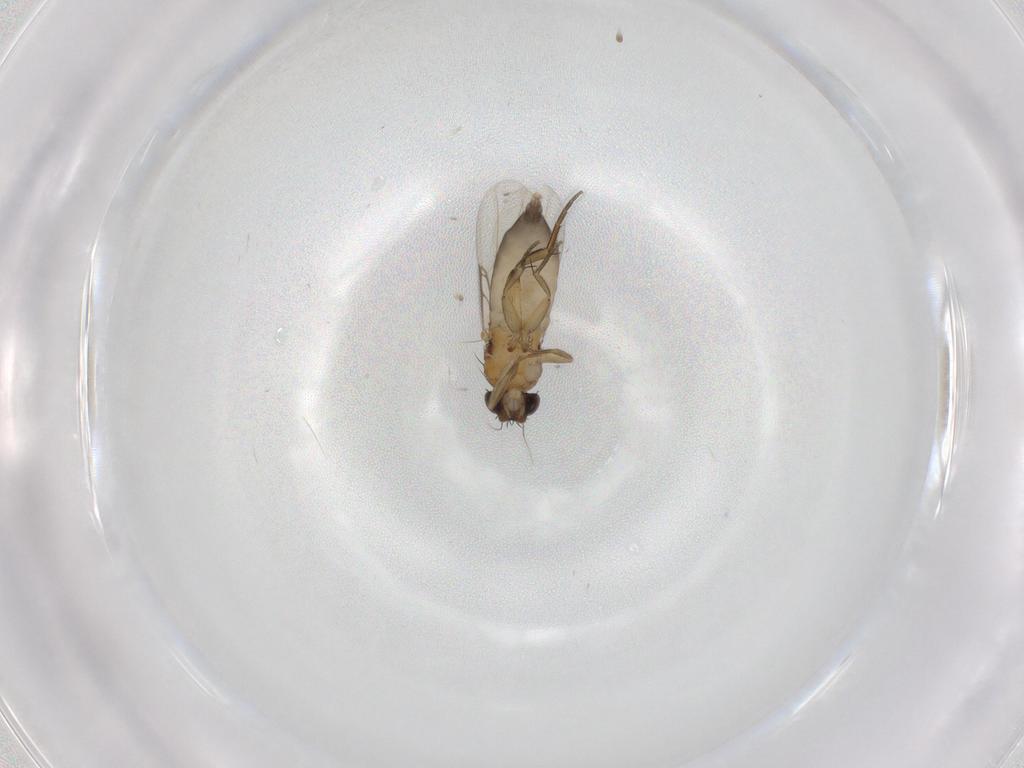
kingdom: Animalia
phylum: Arthropoda
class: Insecta
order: Diptera
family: Phoridae
